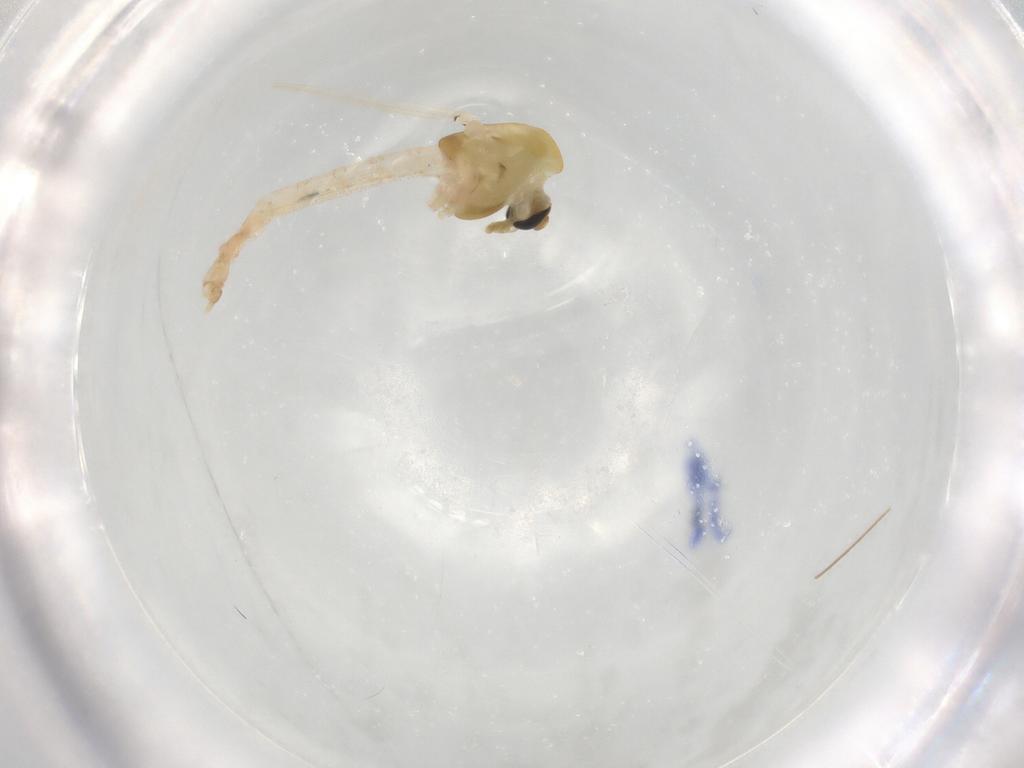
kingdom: Animalia
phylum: Arthropoda
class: Insecta
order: Diptera
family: Chironomidae
